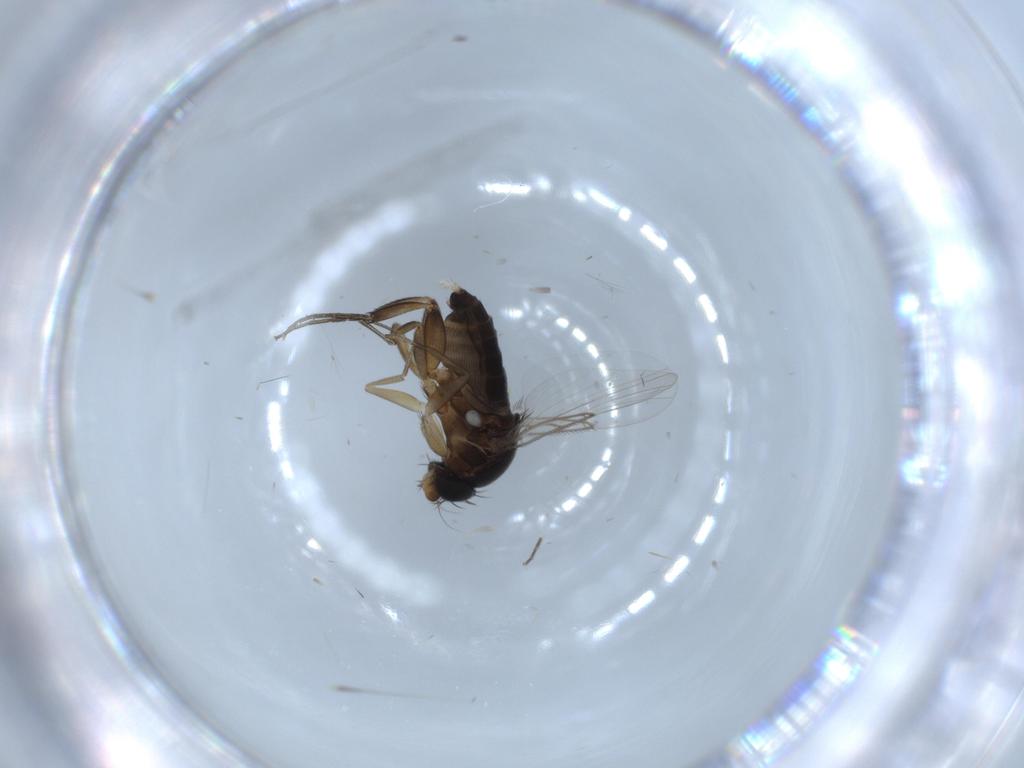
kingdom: Animalia
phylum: Arthropoda
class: Insecta
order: Diptera
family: Phoridae
